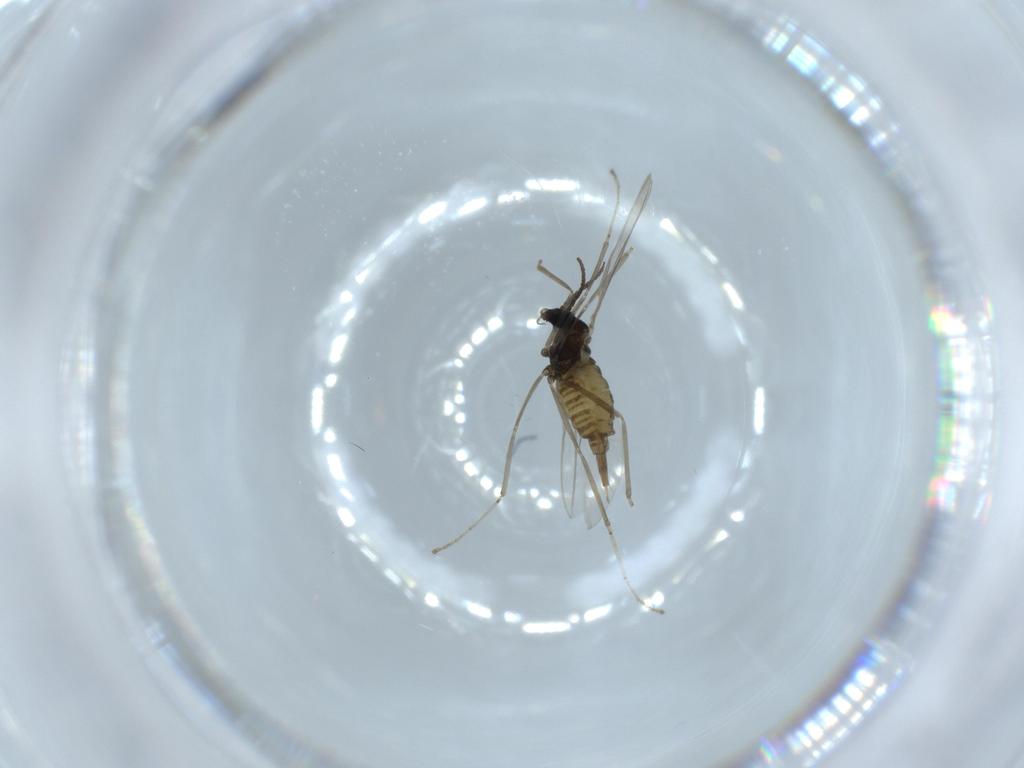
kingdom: Animalia
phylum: Arthropoda
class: Insecta
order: Diptera
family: Cecidomyiidae
